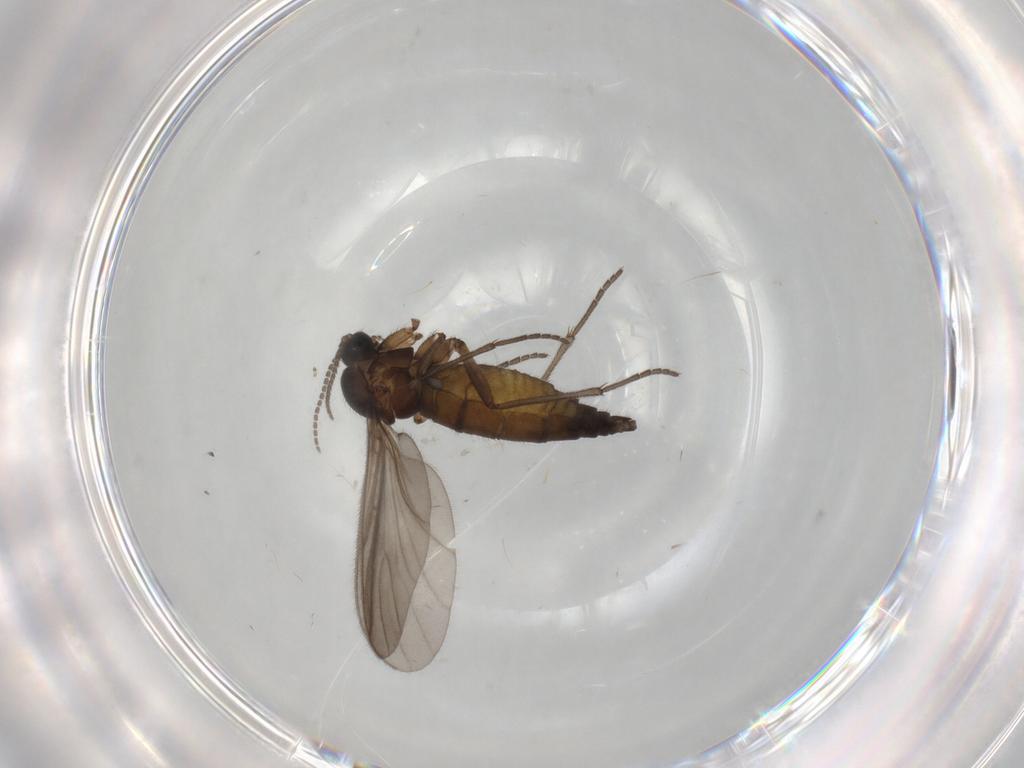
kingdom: Animalia
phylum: Arthropoda
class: Insecta
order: Diptera
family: Sciaridae
